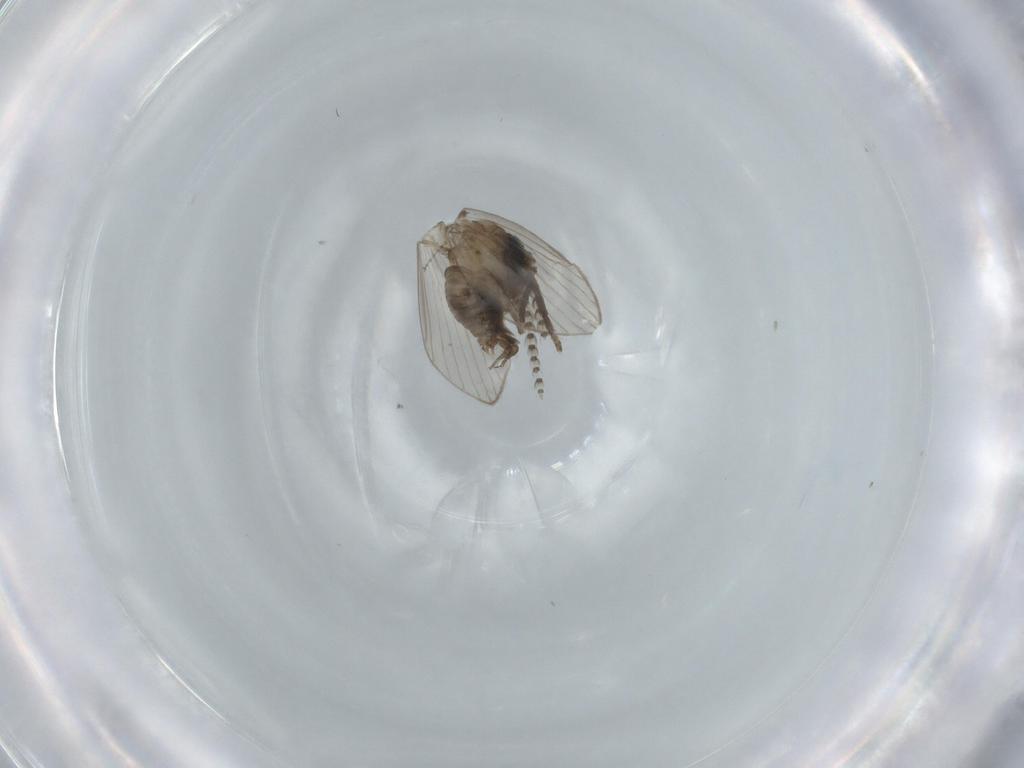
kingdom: Animalia
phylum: Arthropoda
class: Insecta
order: Diptera
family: Psychodidae
